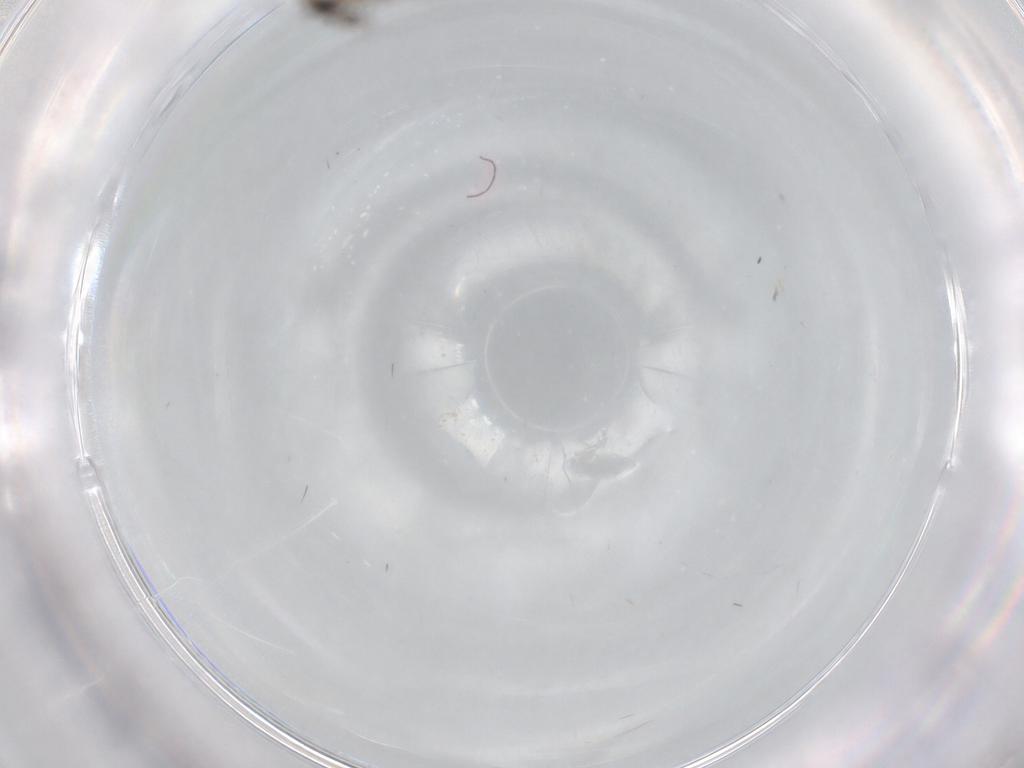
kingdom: Animalia
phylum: Arthropoda
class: Insecta
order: Diptera
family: Sciaridae
